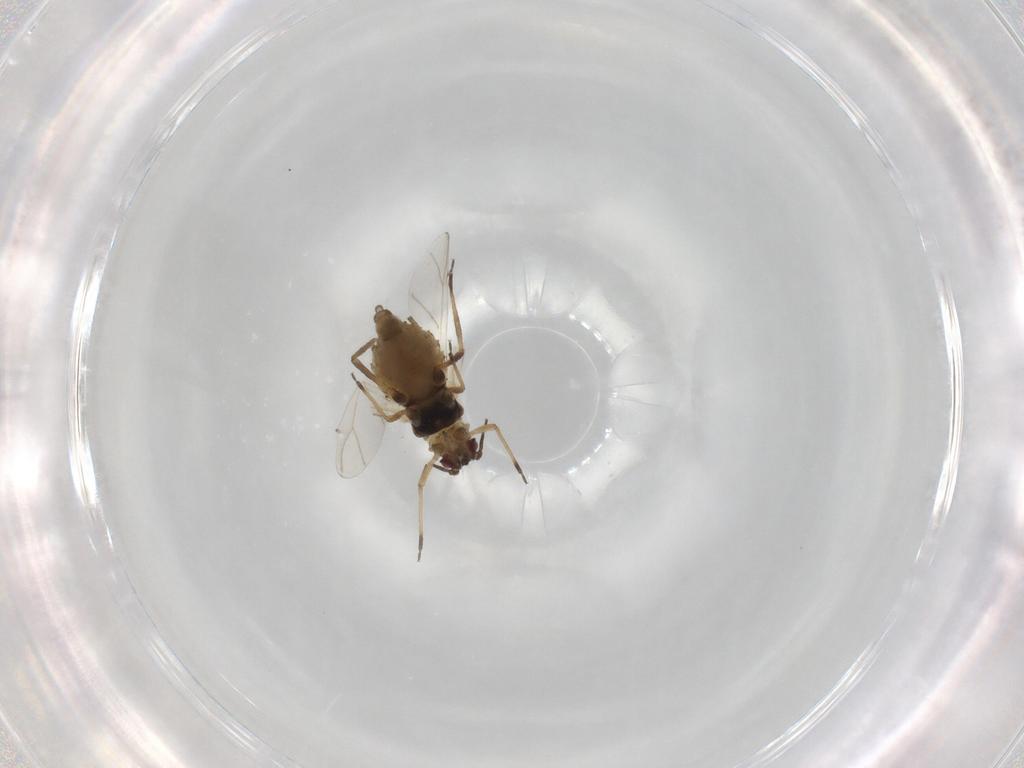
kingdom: Animalia
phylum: Arthropoda
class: Insecta
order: Hemiptera
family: Aphididae
